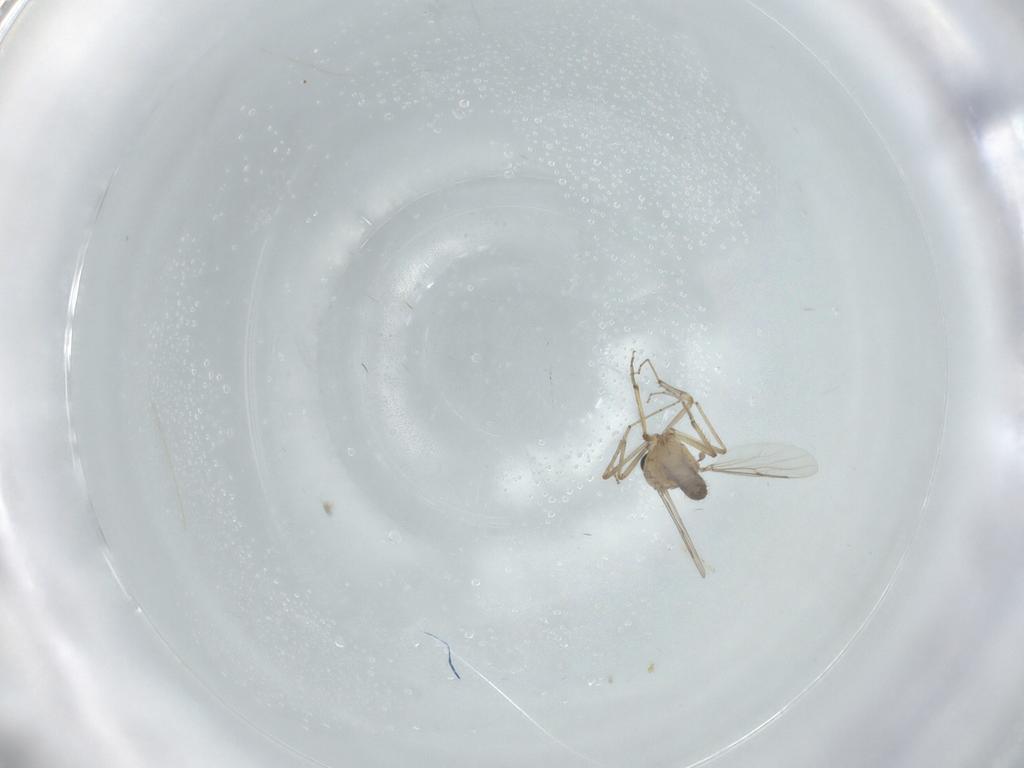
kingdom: Animalia
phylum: Arthropoda
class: Insecta
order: Diptera
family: Ceratopogonidae
